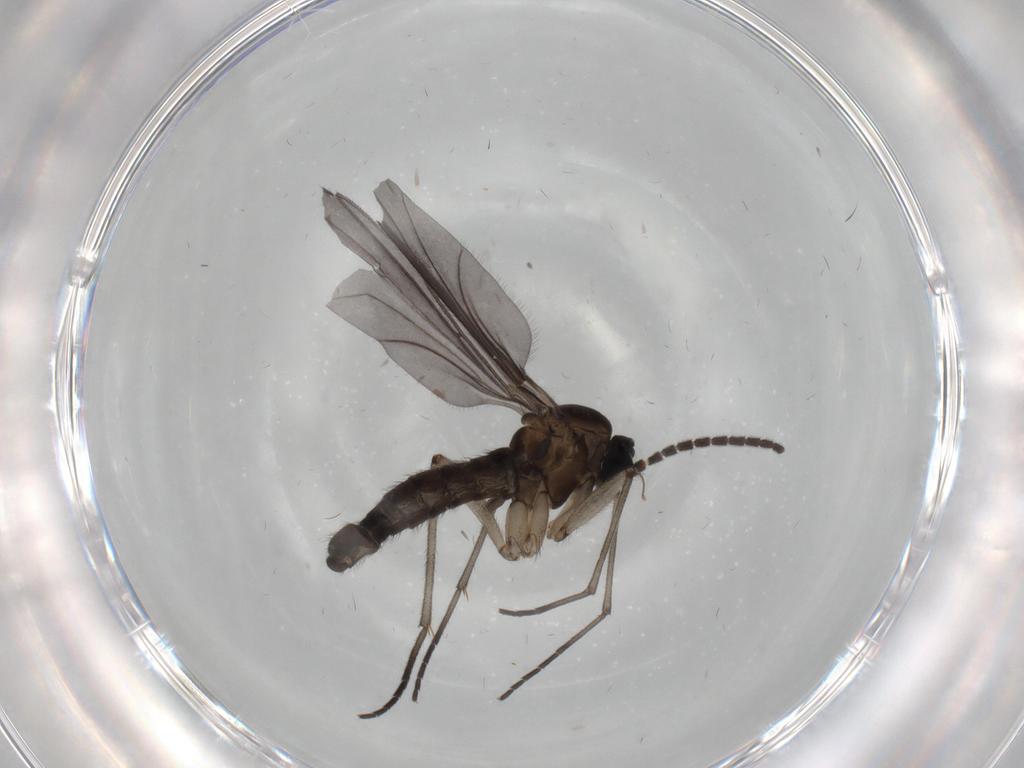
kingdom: Animalia
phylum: Arthropoda
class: Insecta
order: Diptera
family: Sciaridae
